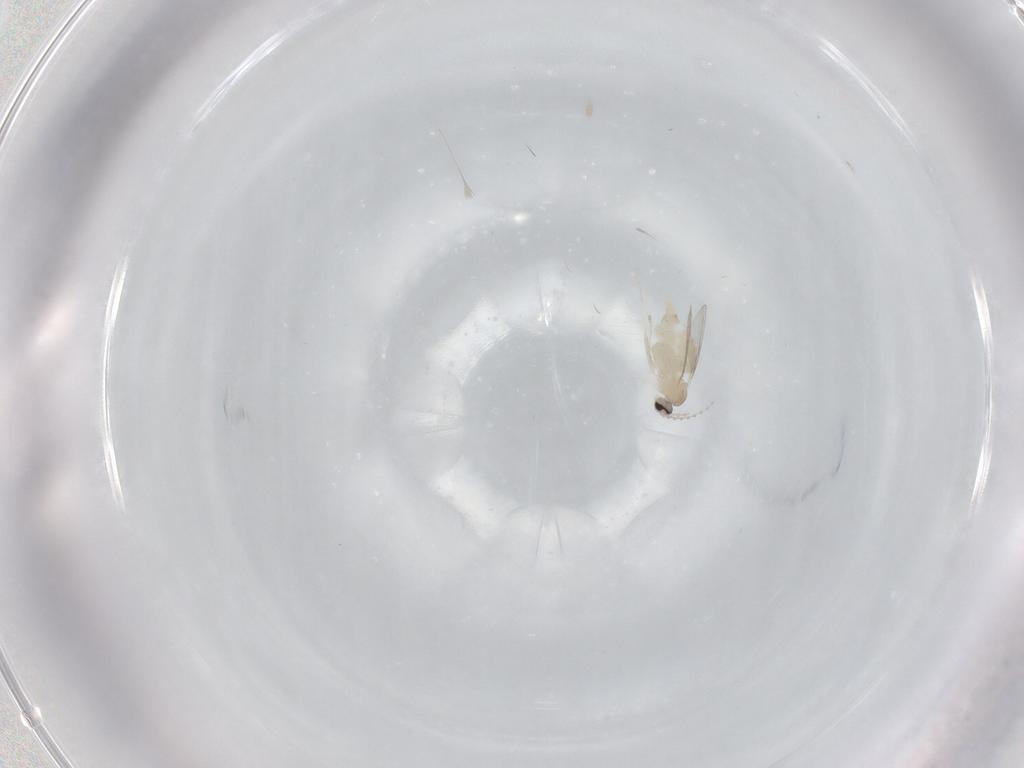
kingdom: Animalia
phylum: Arthropoda
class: Insecta
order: Diptera
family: Cecidomyiidae
